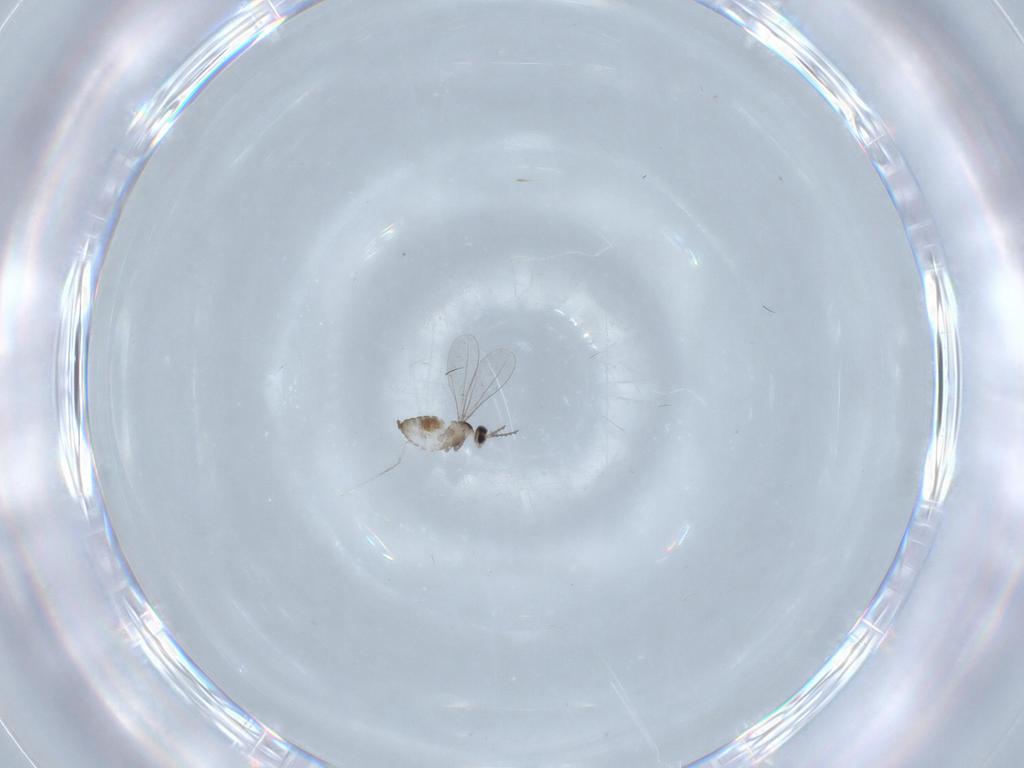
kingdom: Animalia
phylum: Arthropoda
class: Insecta
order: Diptera
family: Cecidomyiidae
